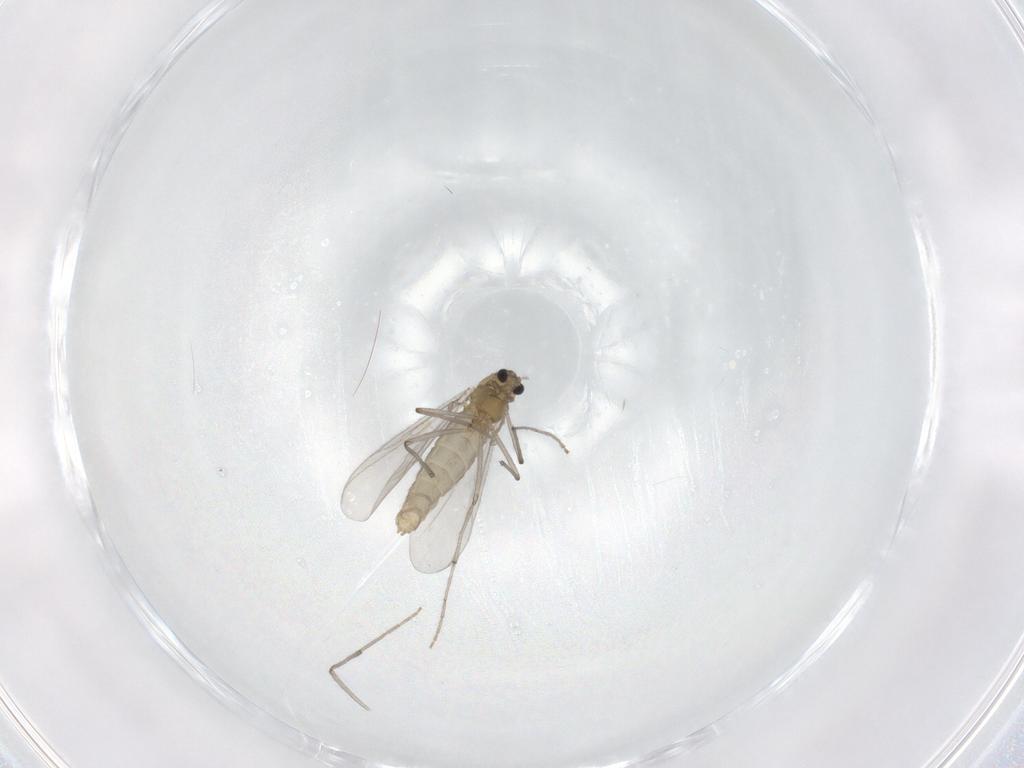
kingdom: Animalia
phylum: Arthropoda
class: Insecta
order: Diptera
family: Chironomidae
